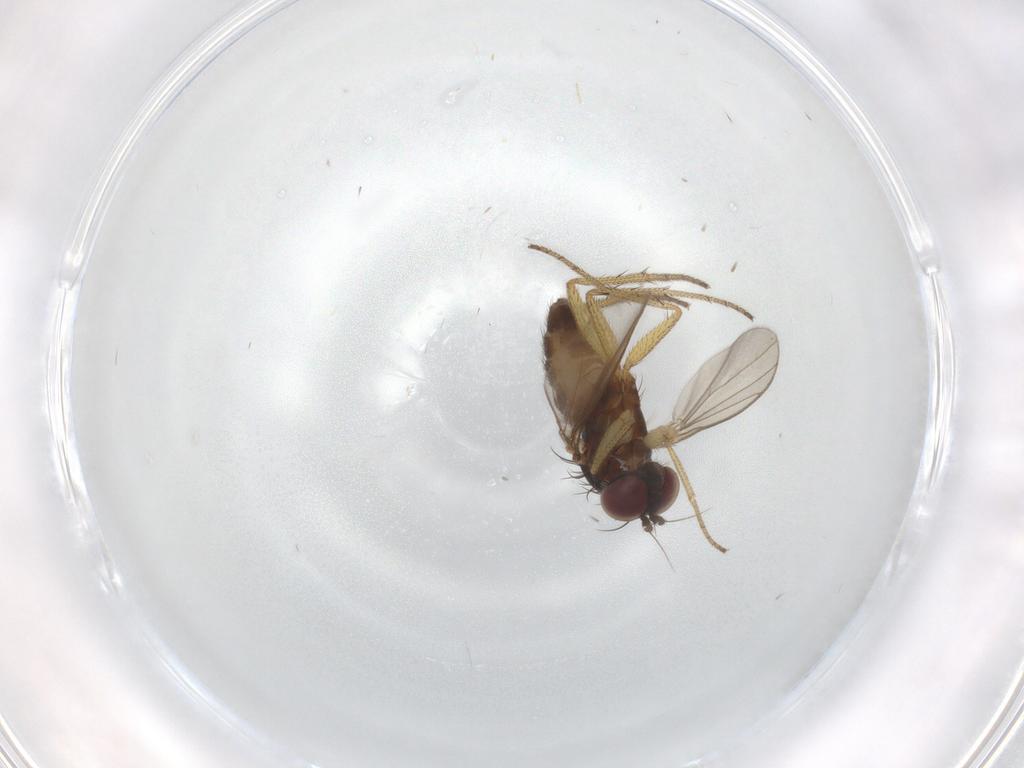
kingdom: Animalia
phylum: Arthropoda
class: Insecta
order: Diptera
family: Dolichopodidae
